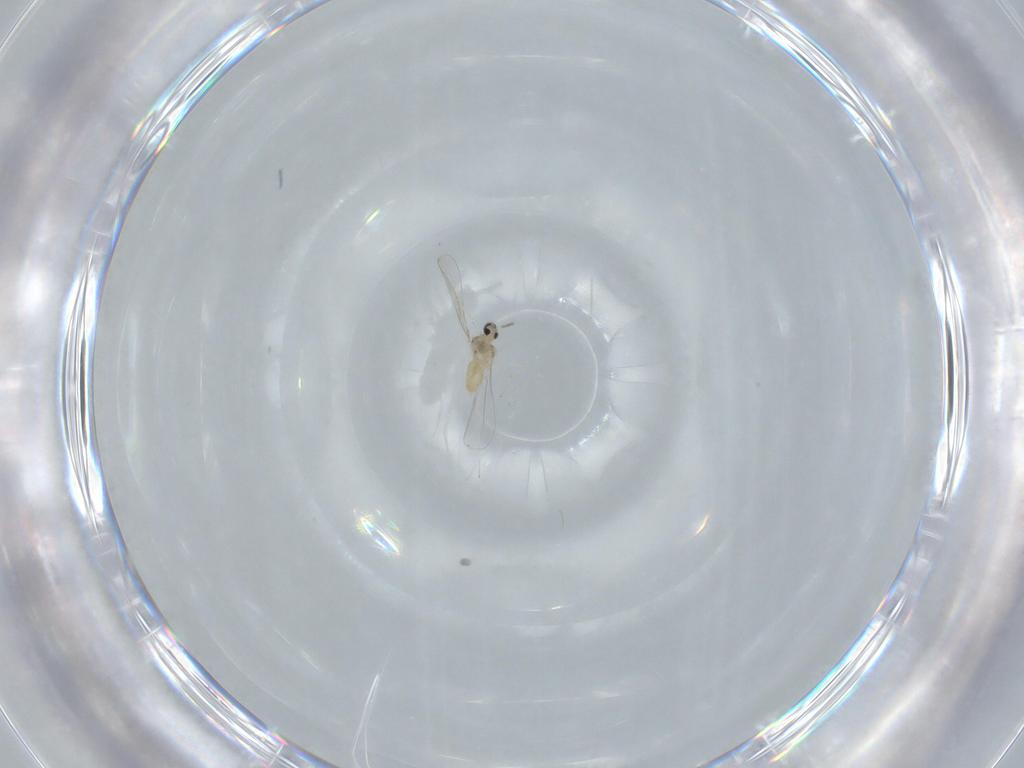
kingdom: Animalia
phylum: Arthropoda
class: Insecta
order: Diptera
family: Cecidomyiidae
